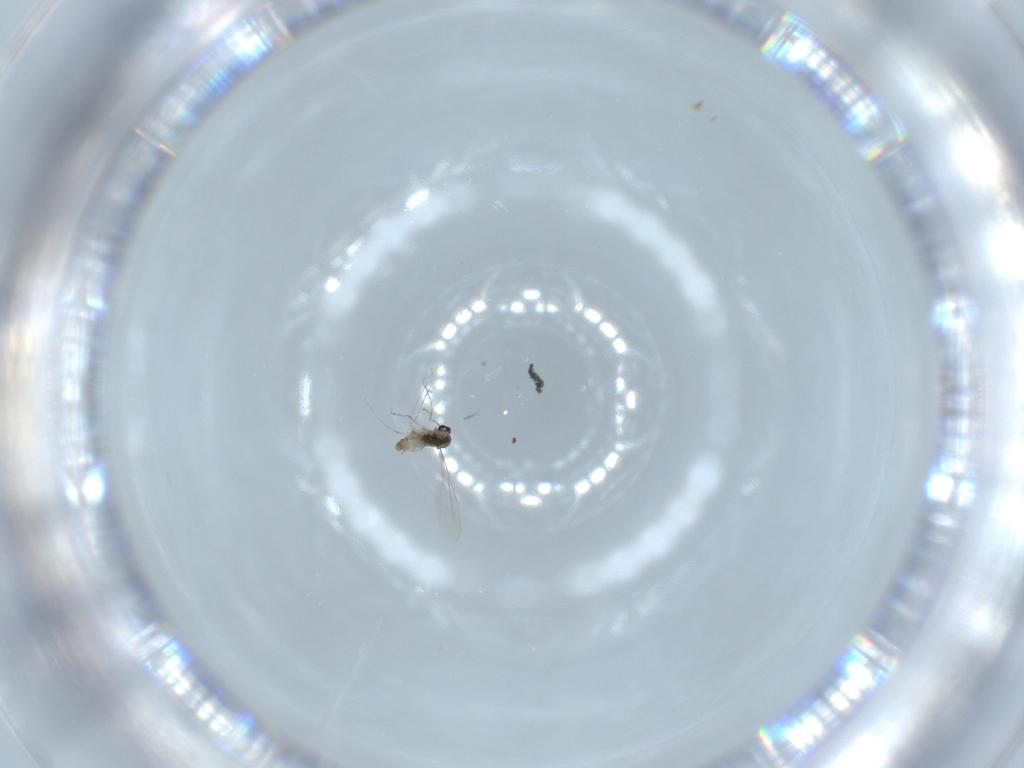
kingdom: Animalia
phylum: Arthropoda
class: Insecta
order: Diptera
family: Cecidomyiidae
